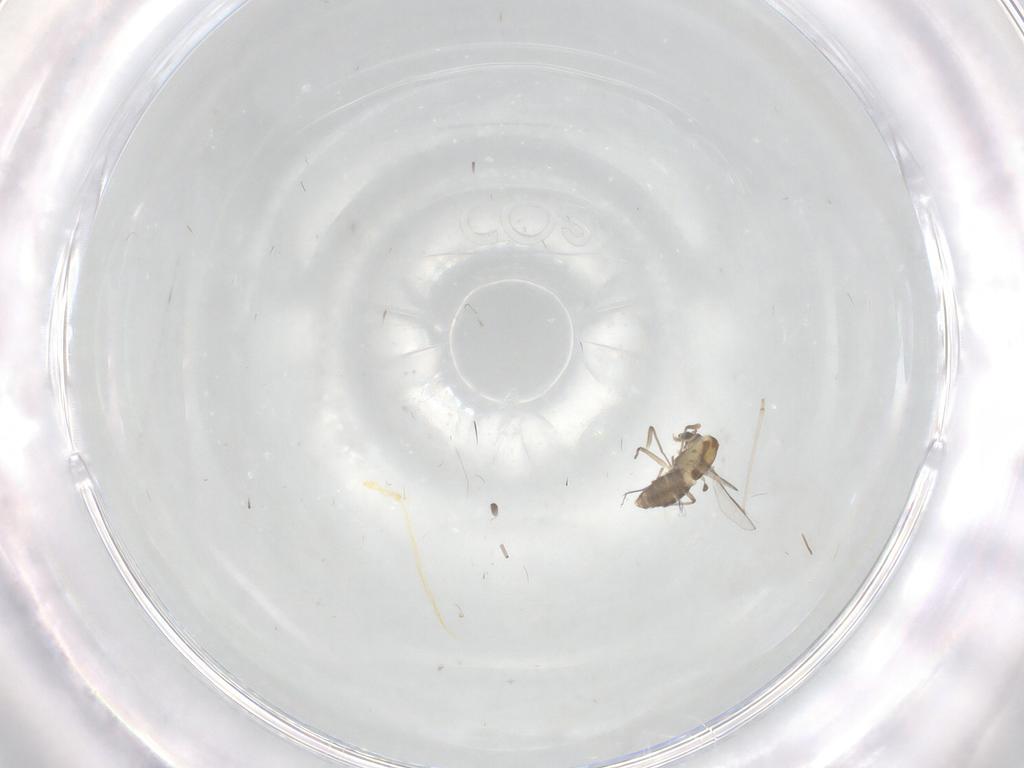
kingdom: Animalia
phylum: Arthropoda
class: Insecta
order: Diptera
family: Chironomidae
